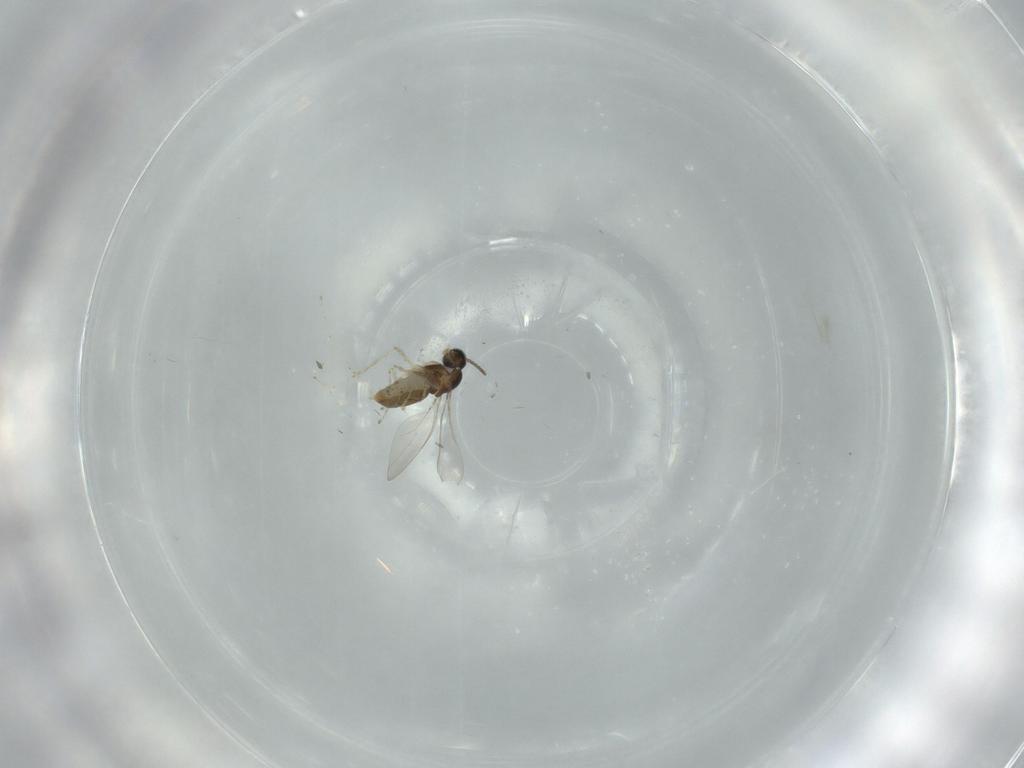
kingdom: Animalia
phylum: Arthropoda
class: Insecta
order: Diptera
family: Cecidomyiidae
